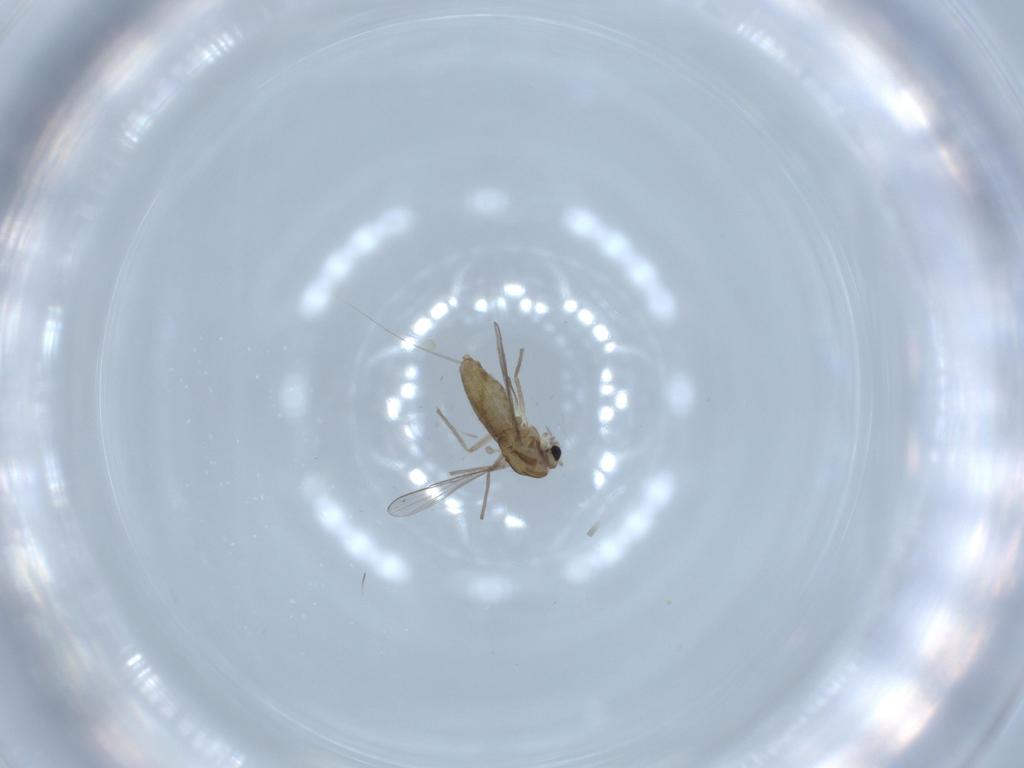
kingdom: Animalia
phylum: Arthropoda
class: Insecta
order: Diptera
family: Chironomidae
